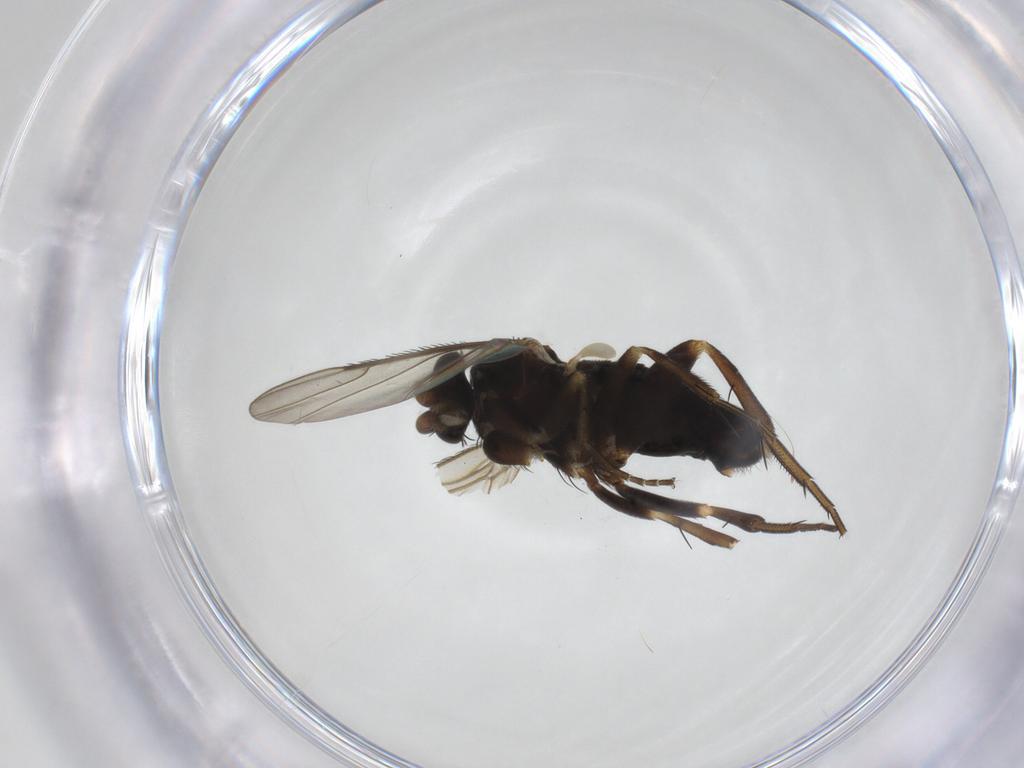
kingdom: Animalia
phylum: Arthropoda
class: Insecta
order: Diptera
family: Phoridae
